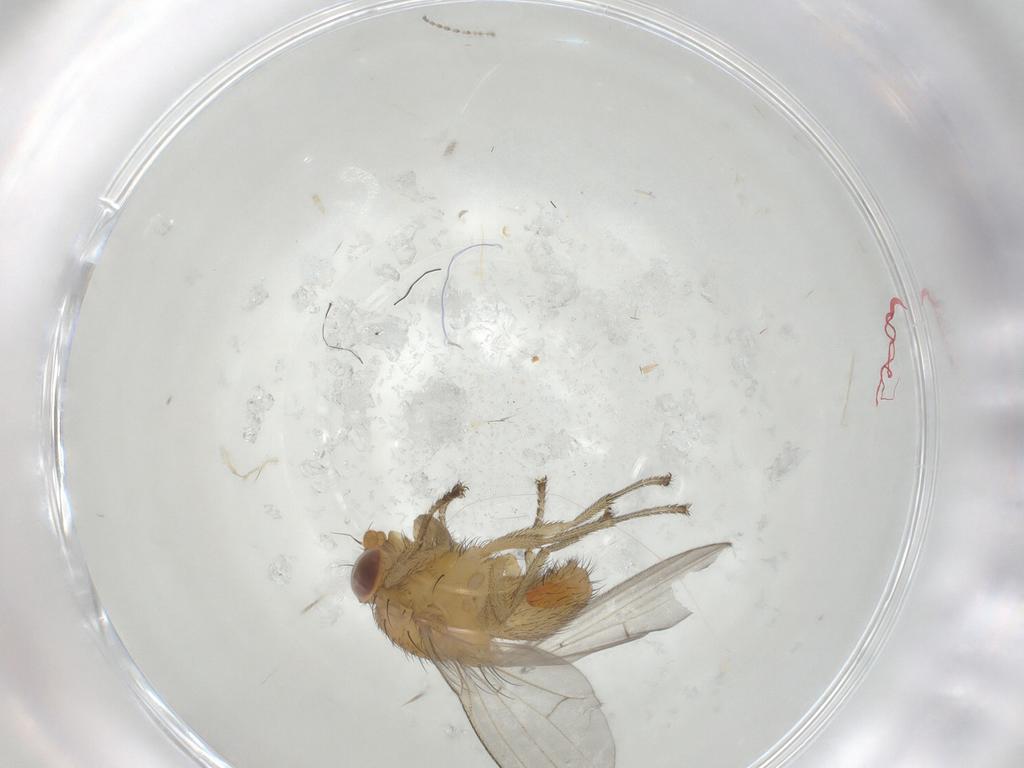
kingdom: Animalia
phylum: Arthropoda
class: Insecta
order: Diptera
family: Cecidomyiidae
